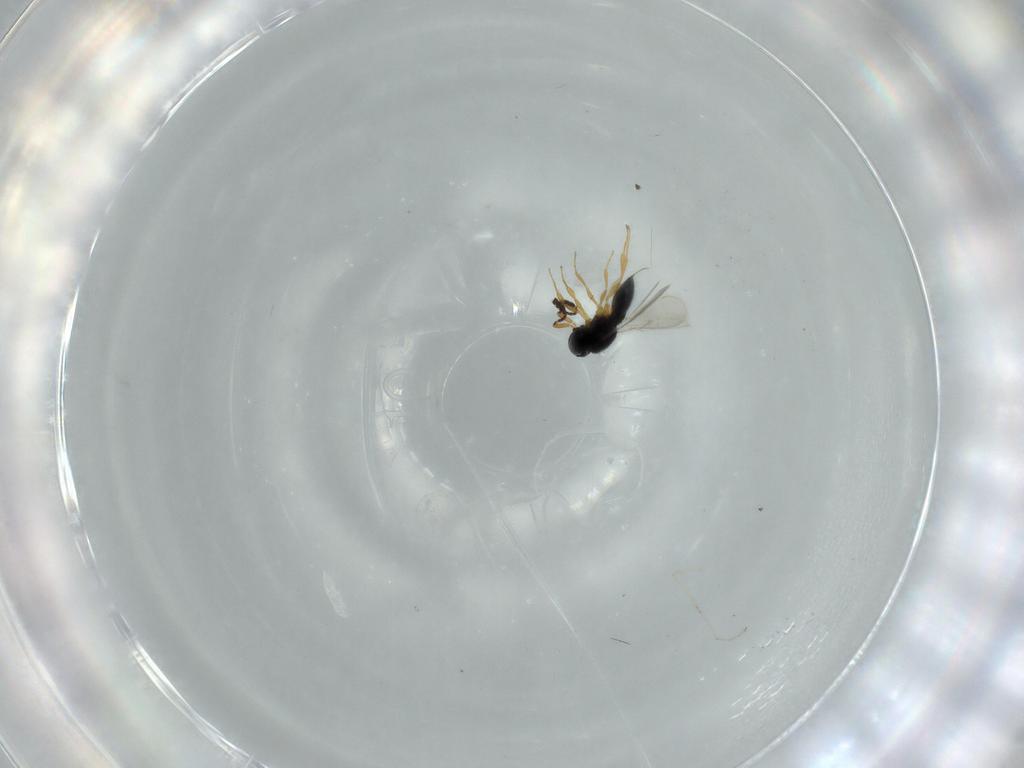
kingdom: Animalia
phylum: Arthropoda
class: Insecta
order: Hymenoptera
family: Scelionidae
